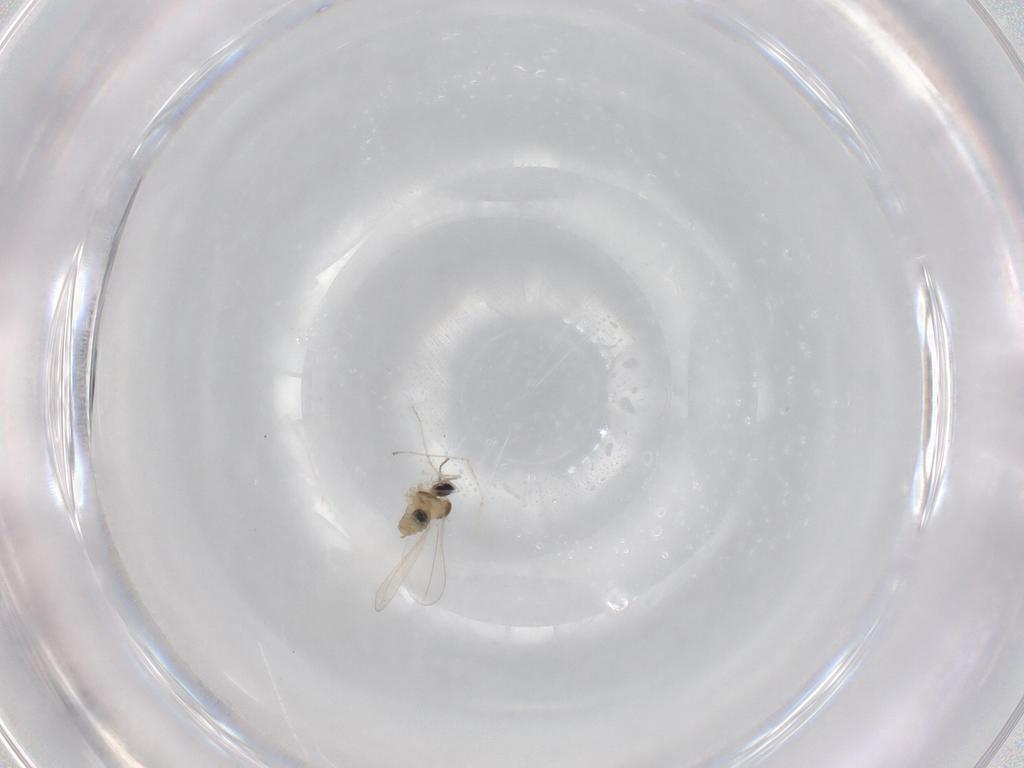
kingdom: Animalia
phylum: Arthropoda
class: Insecta
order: Diptera
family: Cecidomyiidae
